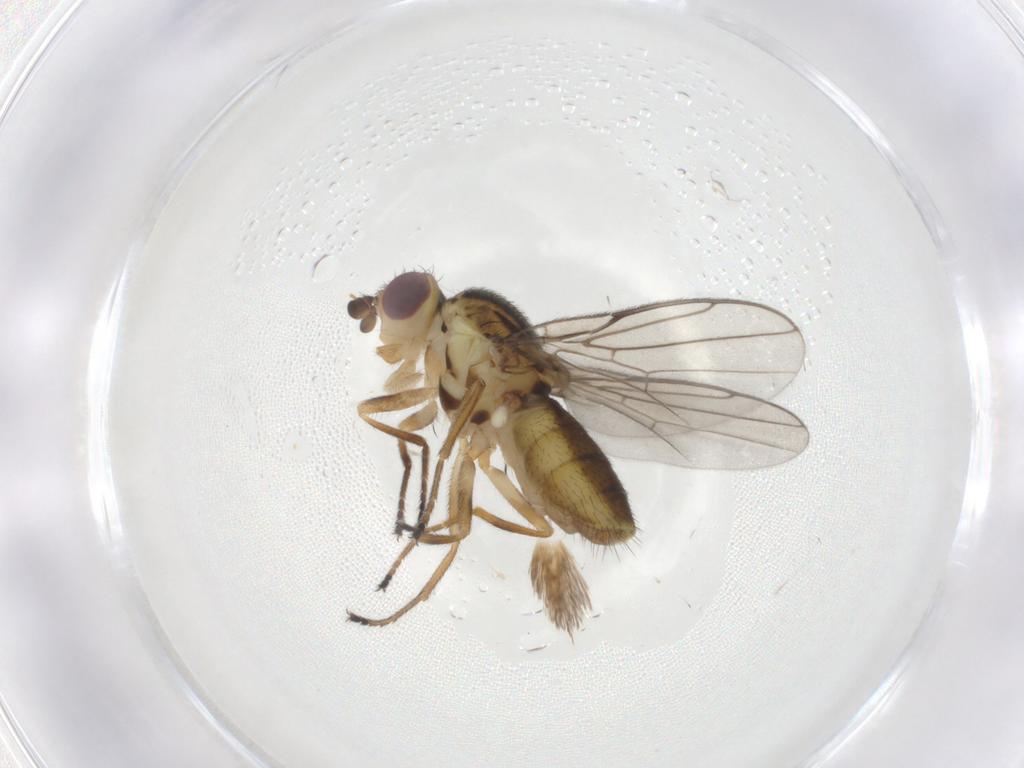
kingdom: Animalia
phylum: Arthropoda
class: Insecta
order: Diptera
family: Chloropidae
